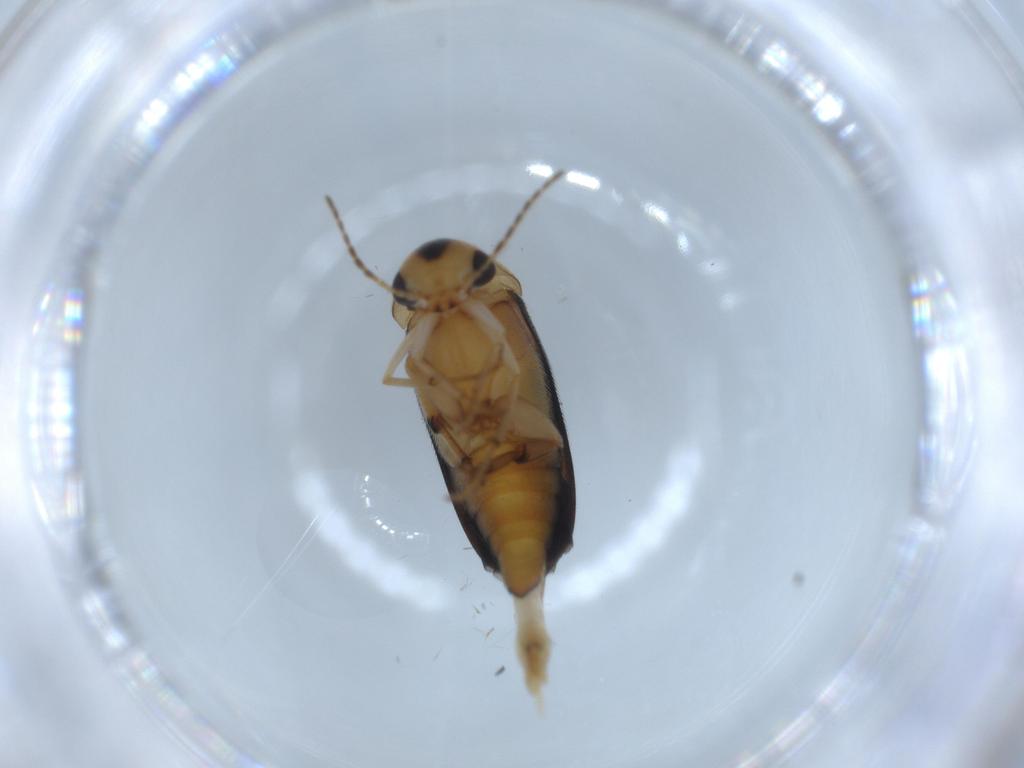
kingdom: Animalia
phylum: Arthropoda
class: Insecta
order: Coleoptera
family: Mordellidae
